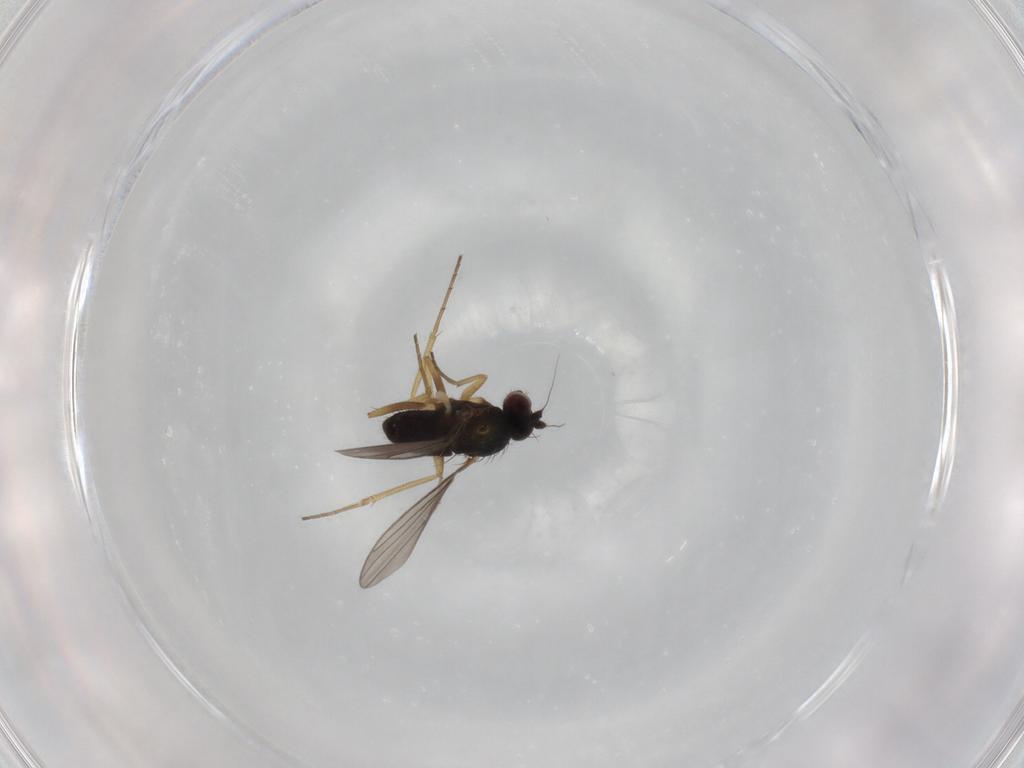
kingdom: Animalia
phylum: Arthropoda
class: Insecta
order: Diptera
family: Dolichopodidae
